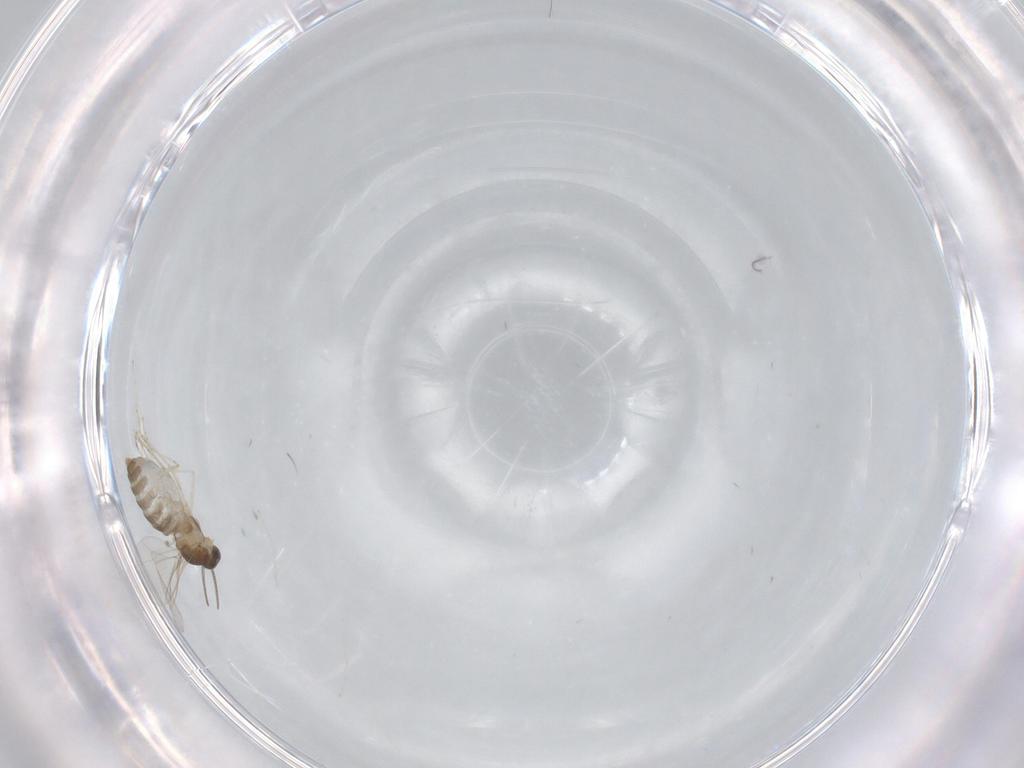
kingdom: Animalia
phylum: Arthropoda
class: Insecta
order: Diptera
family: Cecidomyiidae
